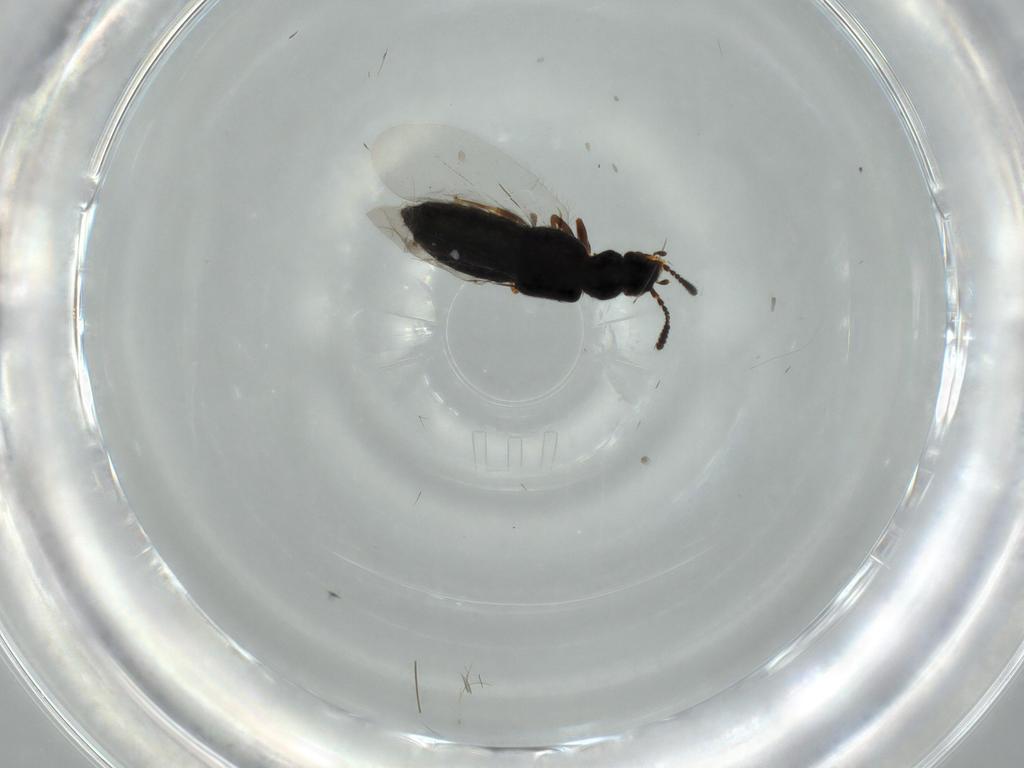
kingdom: Animalia
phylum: Arthropoda
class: Insecta
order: Coleoptera
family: Staphylinidae
